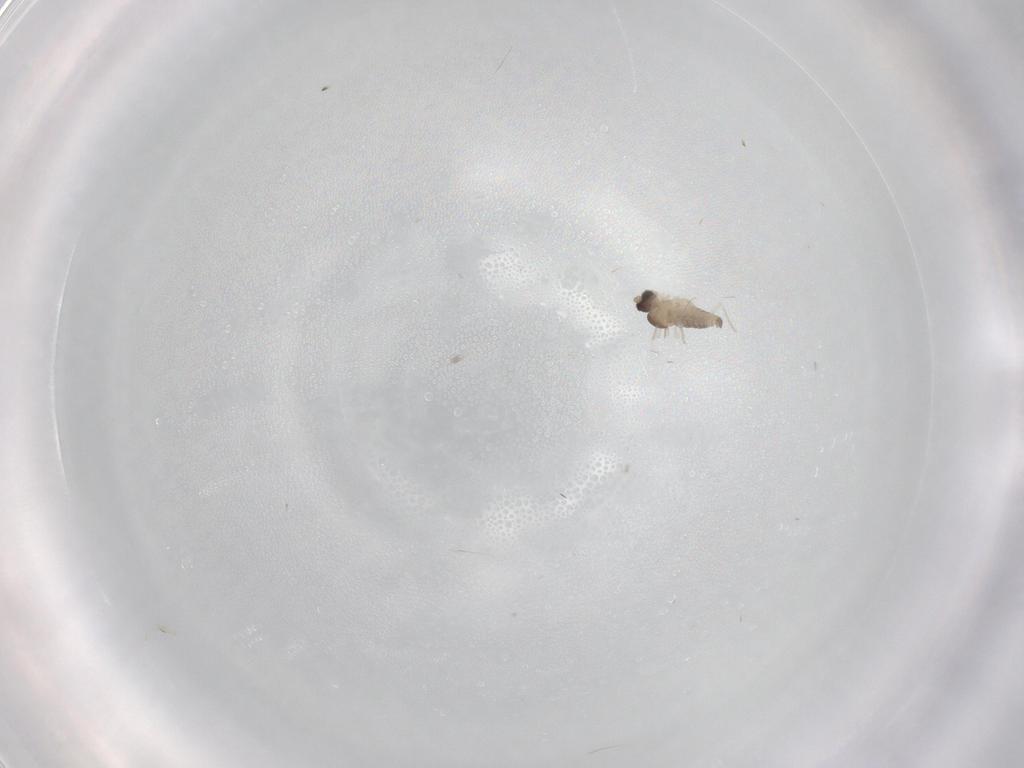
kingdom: Animalia
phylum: Arthropoda
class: Insecta
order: Diptera
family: Cecidomyiidae
